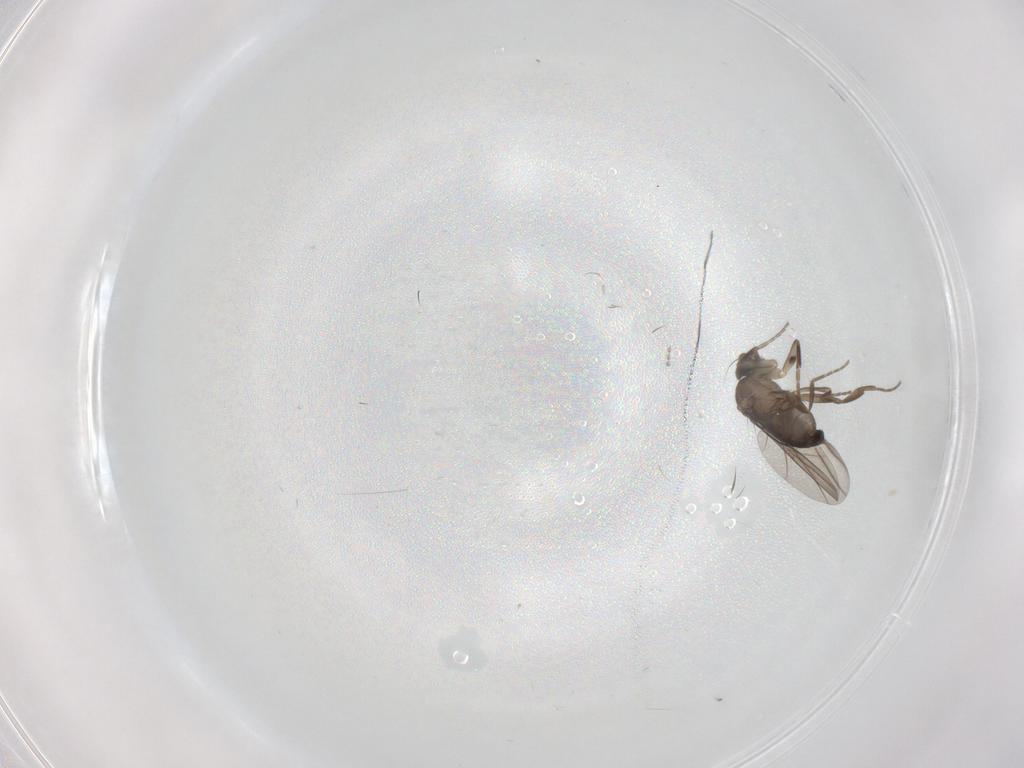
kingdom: Animalia
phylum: Arthropoda
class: Insecta
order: Diptera
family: Phoridae
